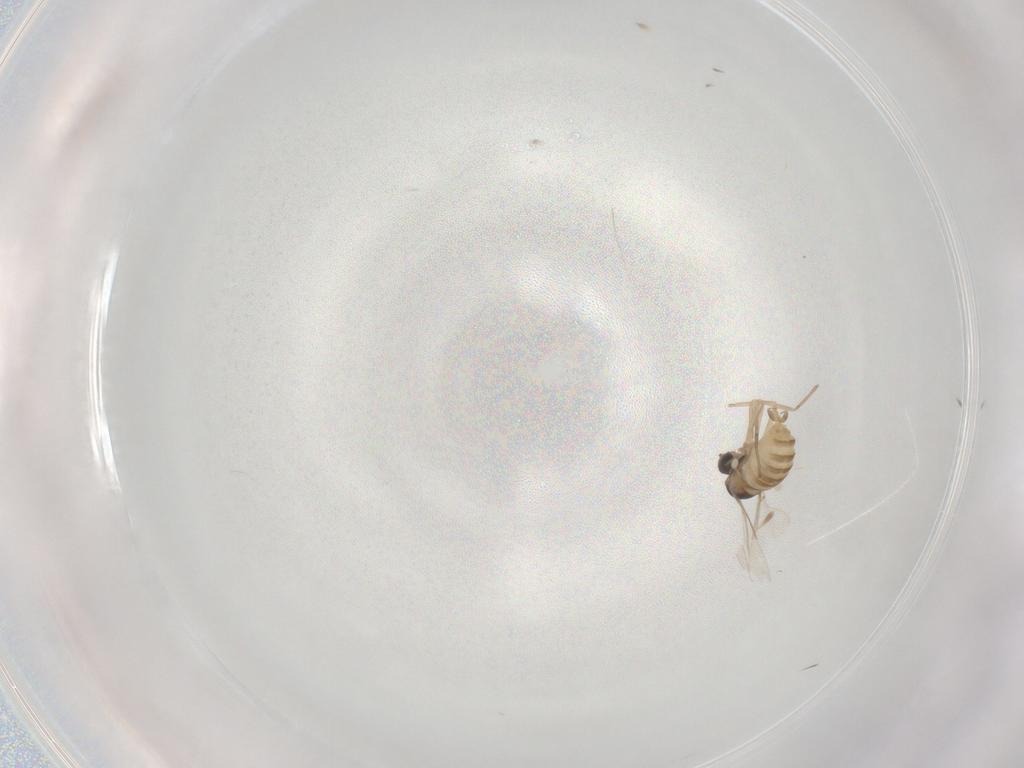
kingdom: Animalia
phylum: Arthropoda
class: Insecta
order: Diptera
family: Cecidomyiidae
